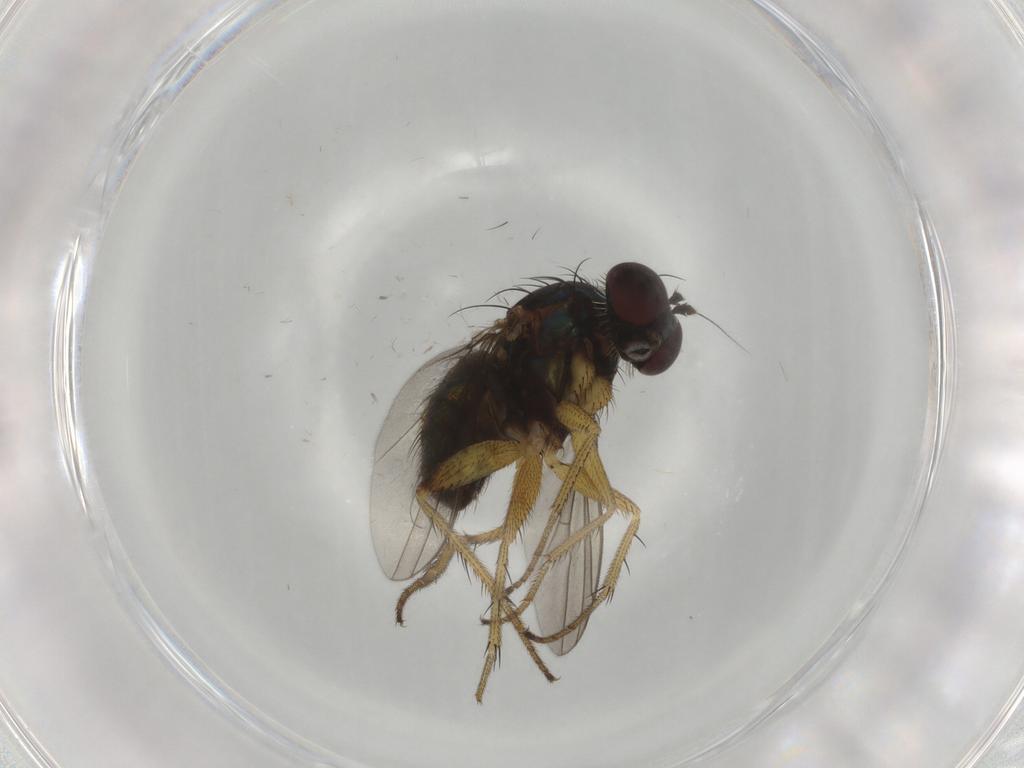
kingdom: Animalia
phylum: Arthropoda
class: Insecta
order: Diptera
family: Dolichopodidae
